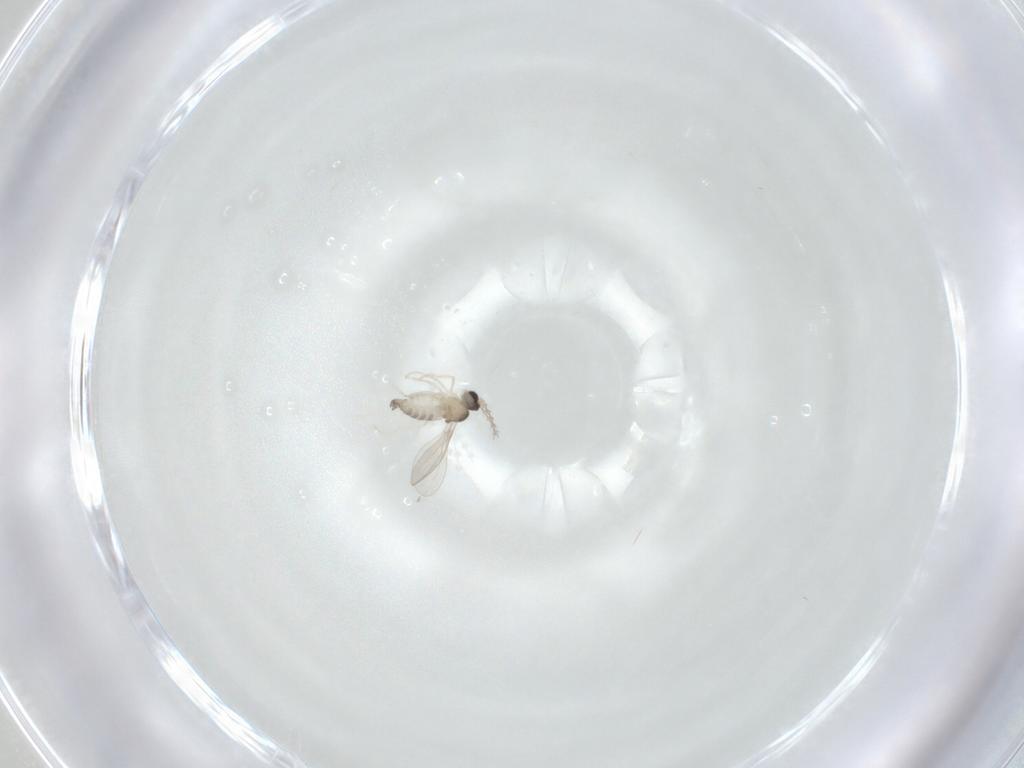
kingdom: Animalia
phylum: Arthropoda
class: Insecta
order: Diptera
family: Cecidomyiidae
